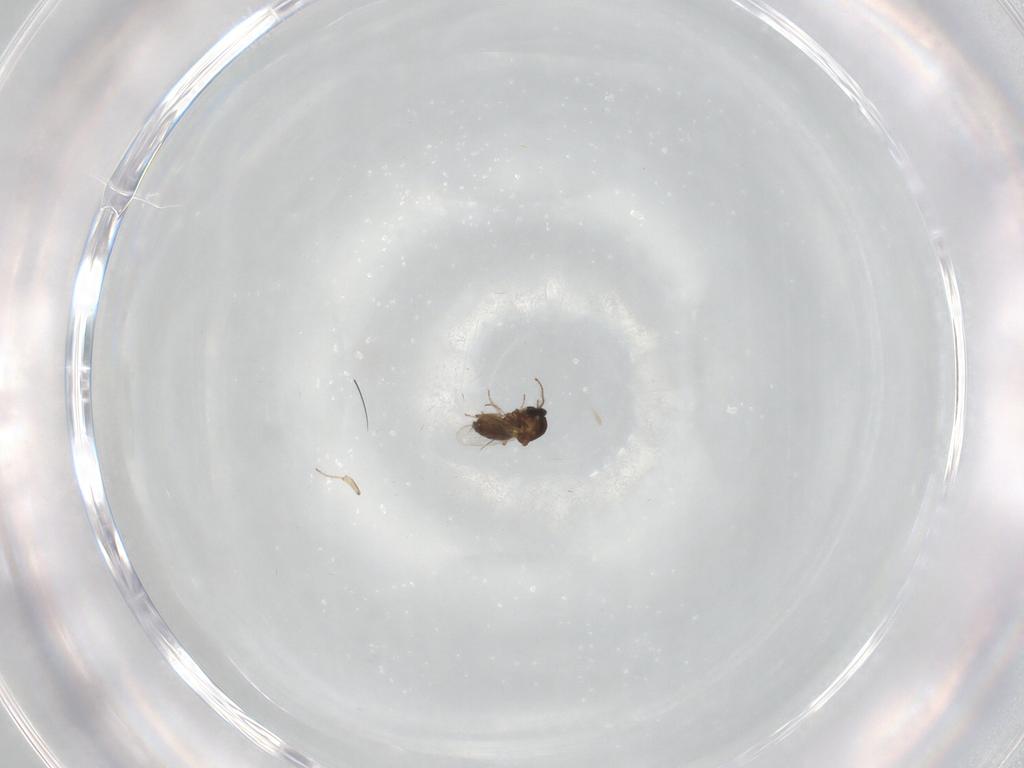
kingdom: Animalia
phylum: Arthropoda
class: Insecta
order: Diptera
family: Ceratopogonidae
